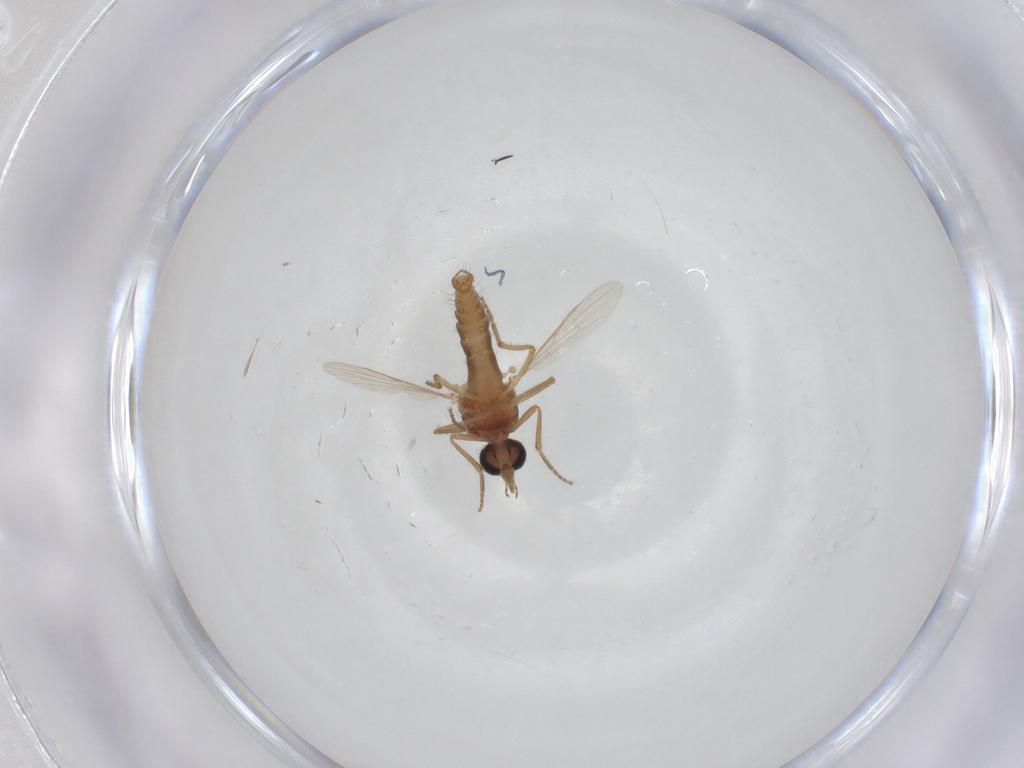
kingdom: Animalia
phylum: Arthropoda
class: Insecta
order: Diptera
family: Ceratopogonidae
